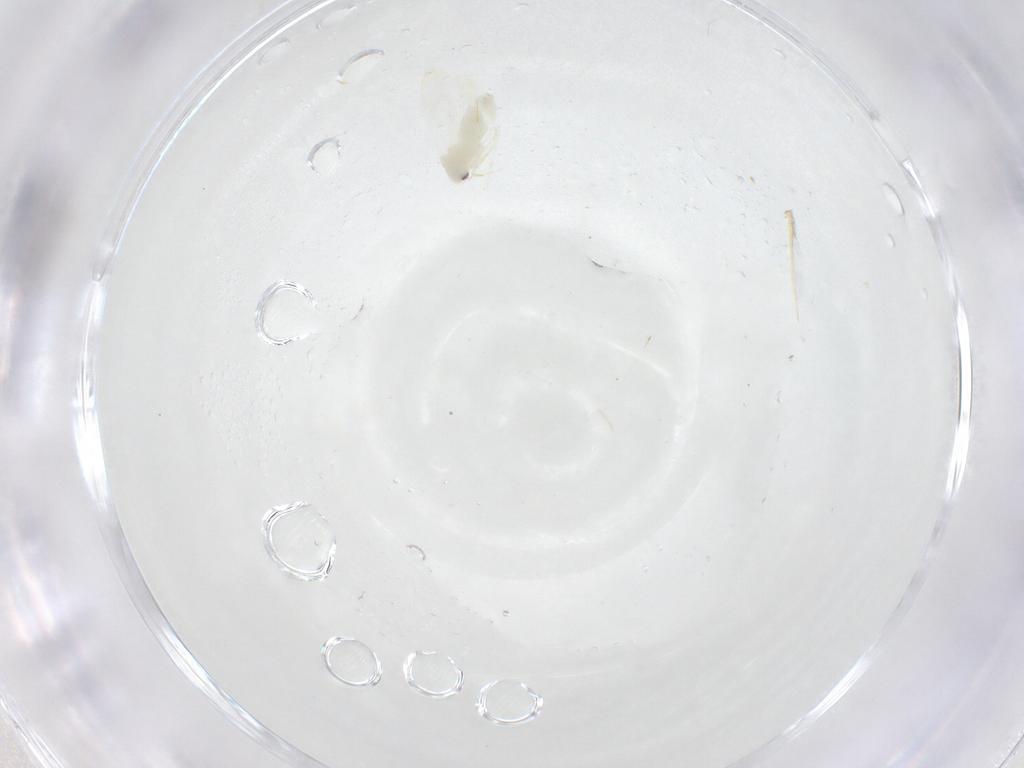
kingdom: Animalia
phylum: Arthropoda
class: Insecta
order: Hemiptera
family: Aleyrodidae
